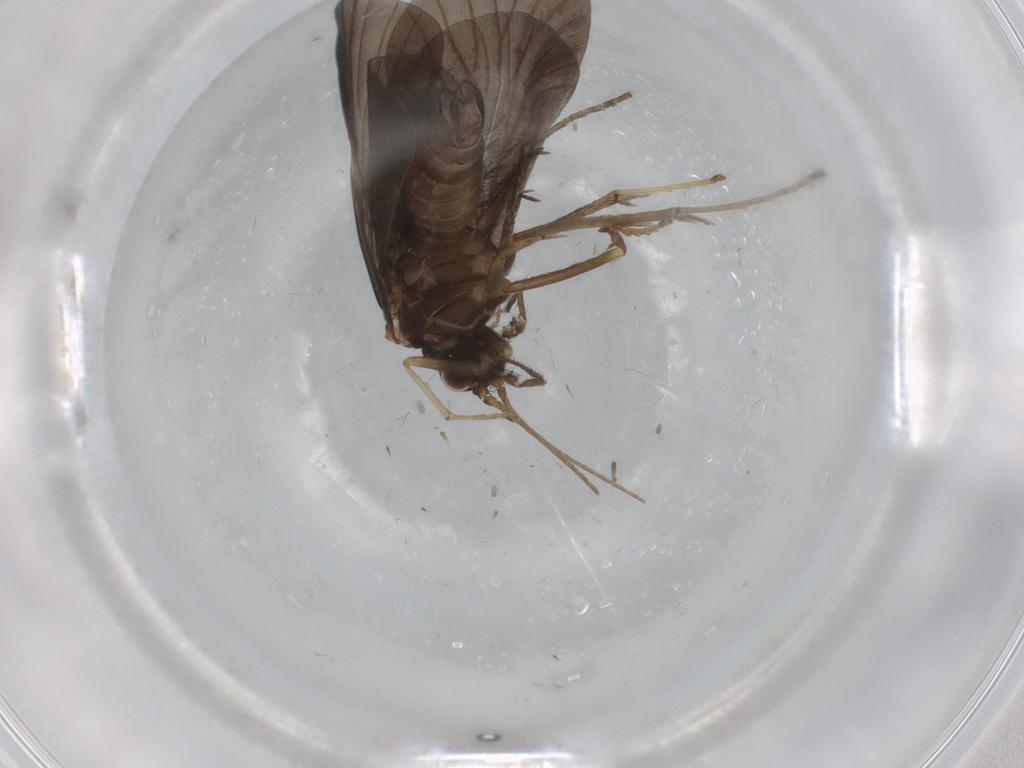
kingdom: Animalia
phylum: Arthropoda
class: Insecta
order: Trichoptera
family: Hydropsychidae
